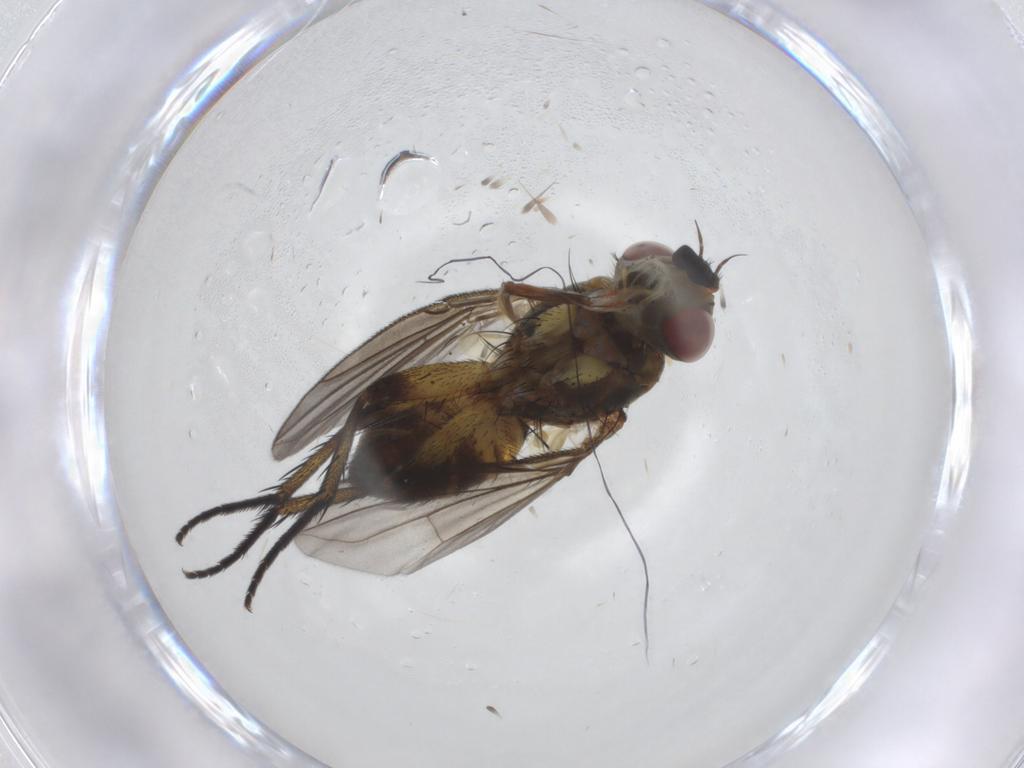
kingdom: Animalia
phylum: Arthropoda
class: Insecta
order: Diptera
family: Tachinidae
